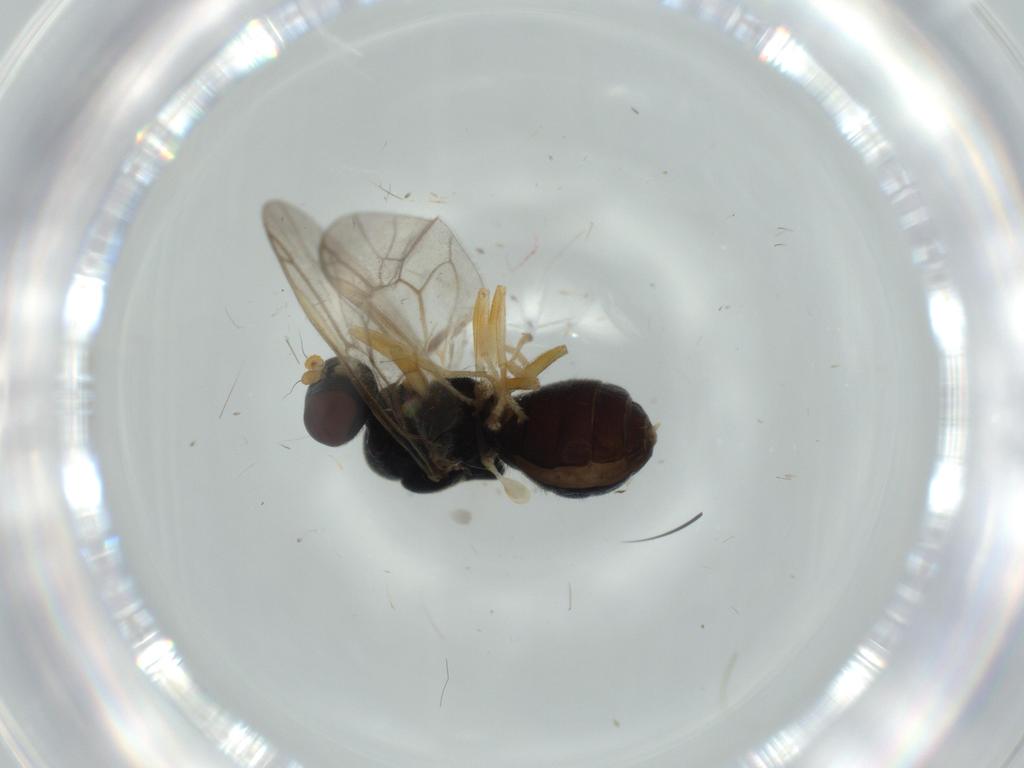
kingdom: Animalia
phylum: Arthropoda
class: Insecta
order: Diptera
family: Stratiomyidae
